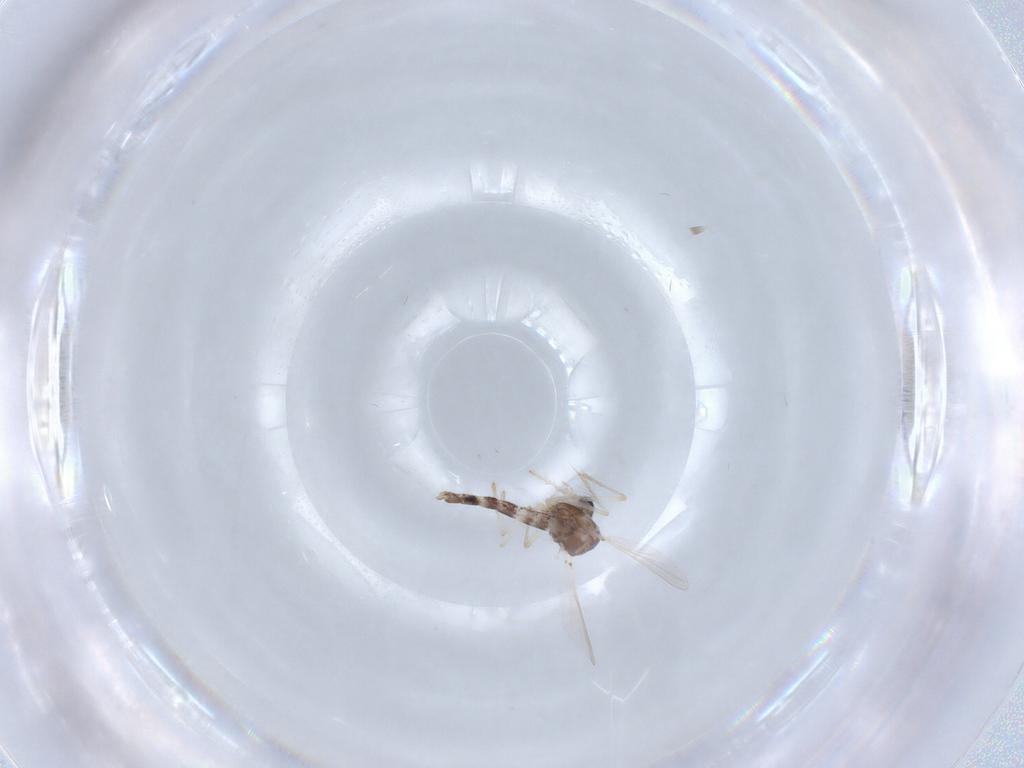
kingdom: Animalia
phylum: Arthropoda
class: Insecta
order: Diptera
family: Chironomidae
